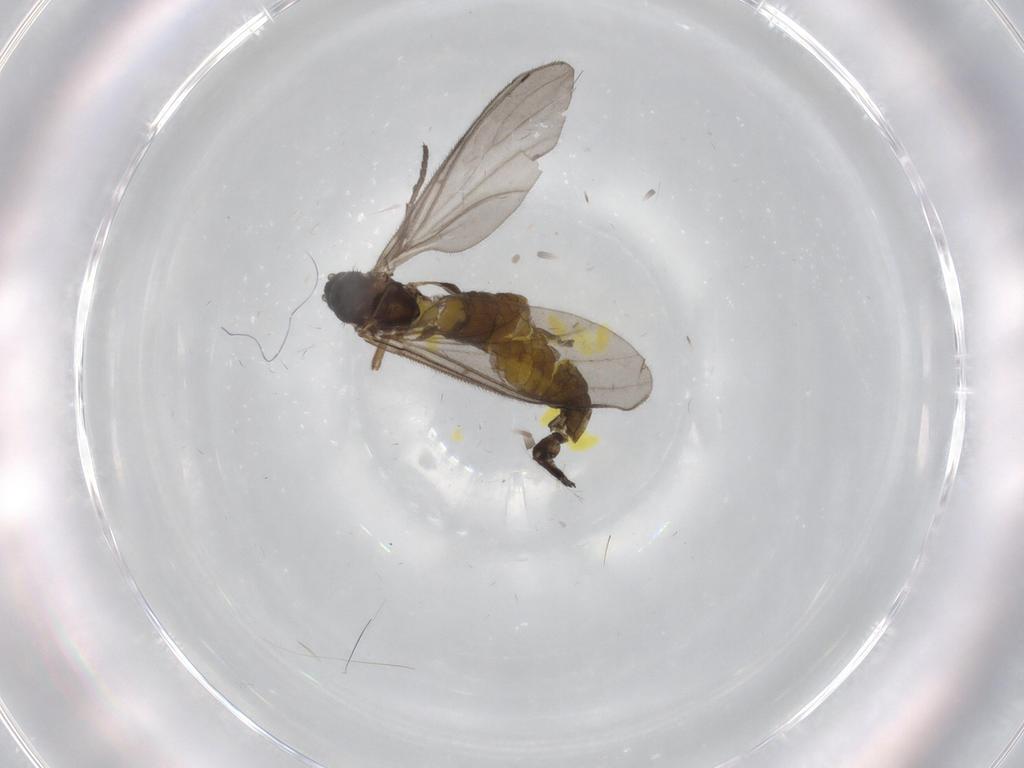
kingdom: Animalia
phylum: Arthropoda
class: Insecta
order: Diptera
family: Sciaridae
